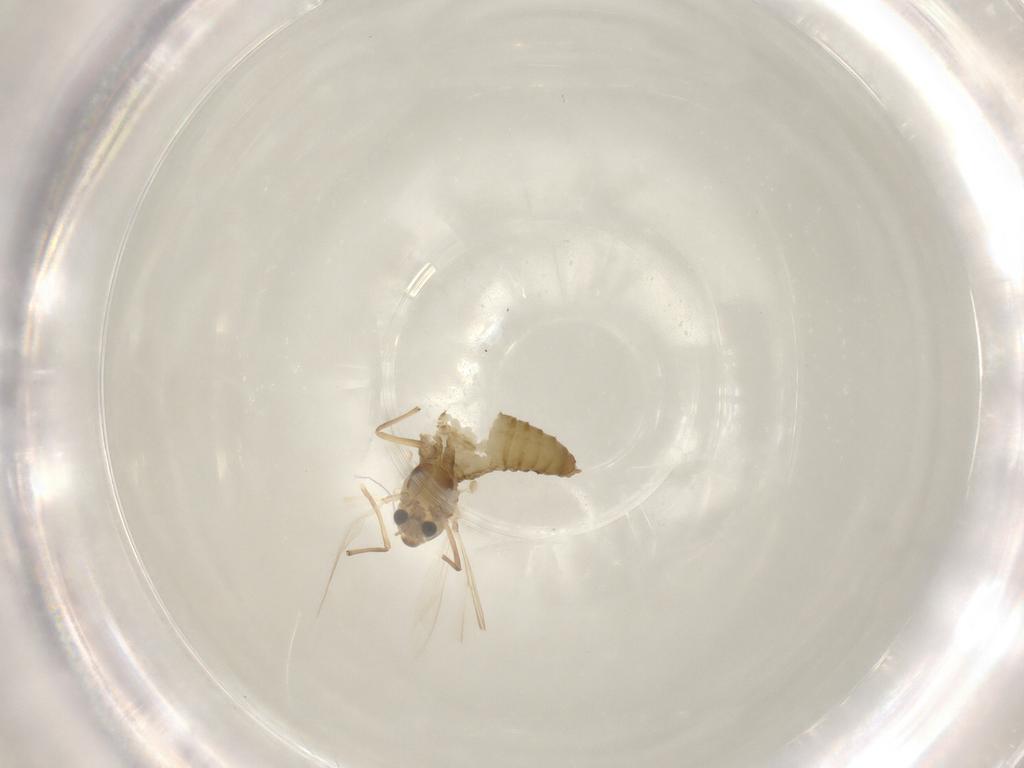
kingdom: Animalia
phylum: Arthropoda
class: Insecta
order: Diptera
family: Chironomidae
